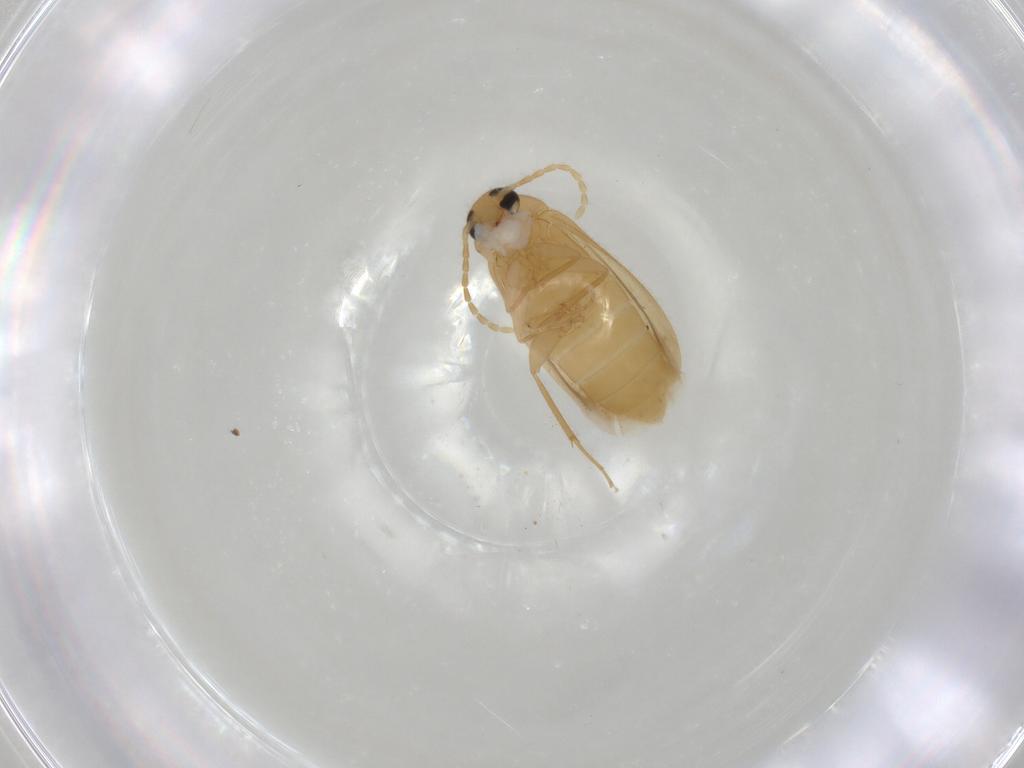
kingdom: Animalia
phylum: Arthropoda
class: Insecta
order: Coleoptera
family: Scraptiidae
